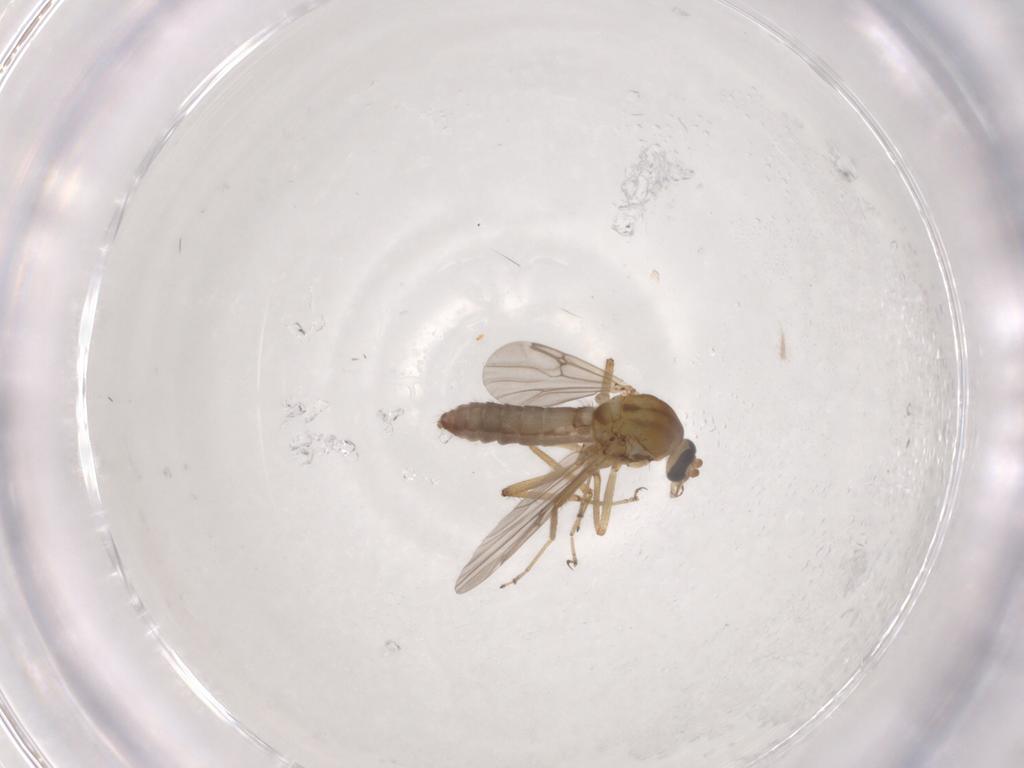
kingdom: Animalia
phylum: Arthropoda
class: Insecta
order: Diptera
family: Ceratopogonidae
